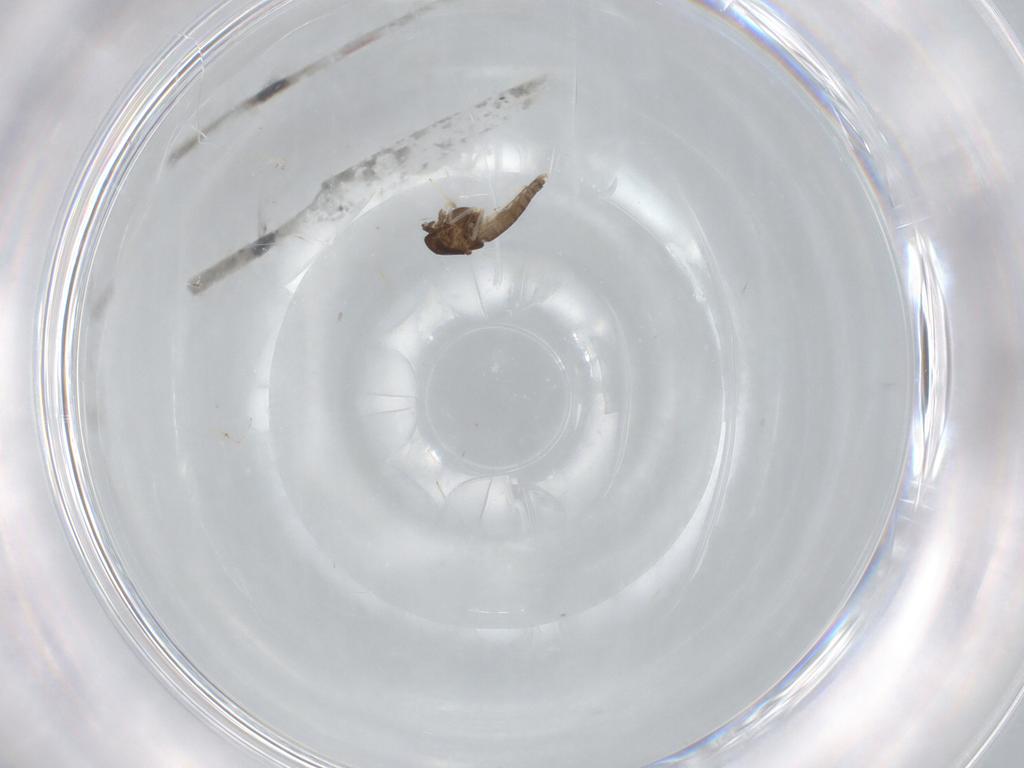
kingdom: Animalia
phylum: Arthropoda
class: Insecta
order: Diptera
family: Chironomidae
